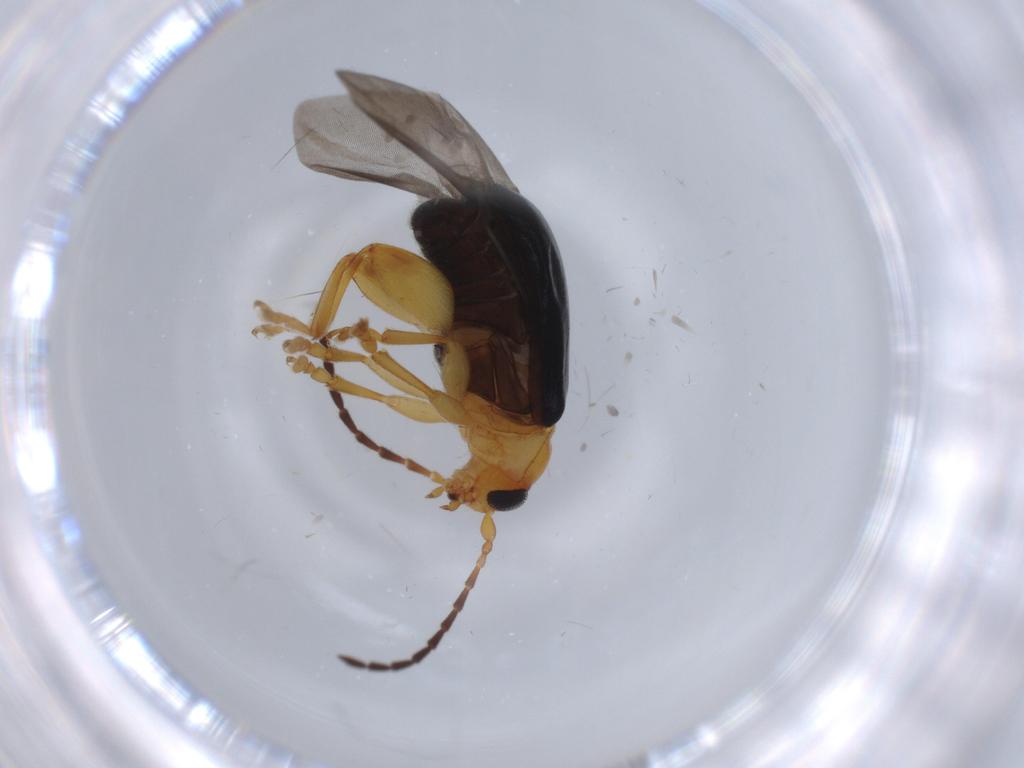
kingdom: Animalia
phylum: Arthropoda
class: Insecta
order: Coleoptera
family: Chrysomelidae
